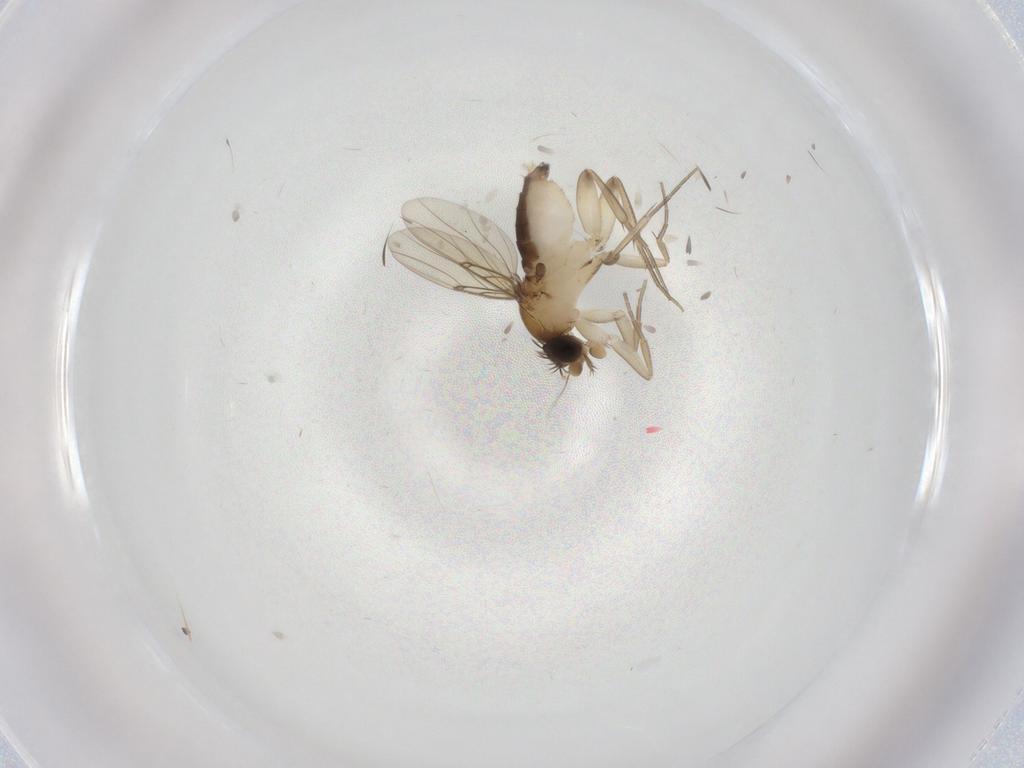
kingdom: Animalia
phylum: Arthropoda
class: Insecta
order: Diptera
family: Phoridae
